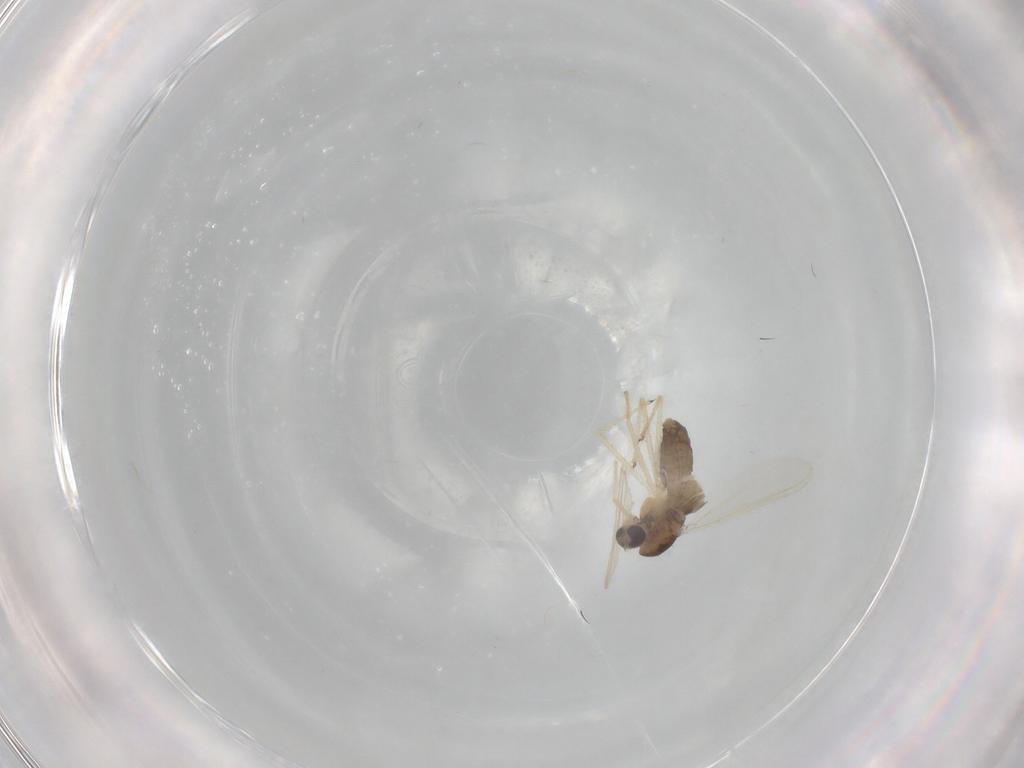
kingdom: Animalia
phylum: Arthropoda
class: Insecta
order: Diptera
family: Chironomidae
